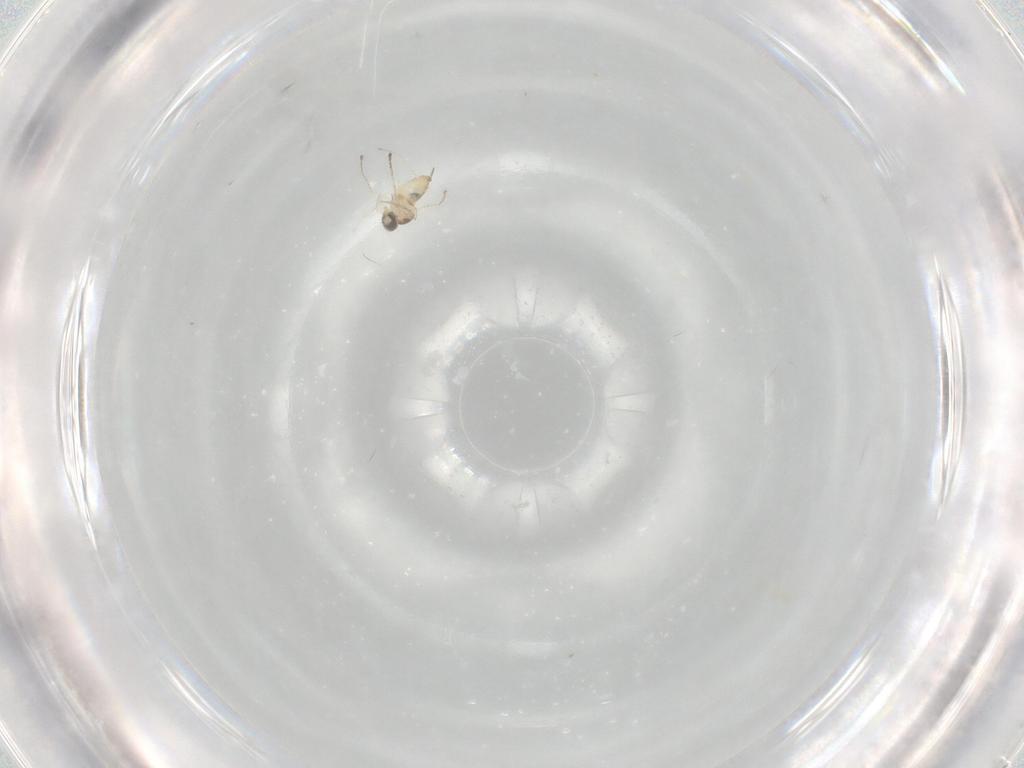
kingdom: Animalia
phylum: Arthropoda
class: Insecta
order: Diptera
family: Cecidomyiidae
